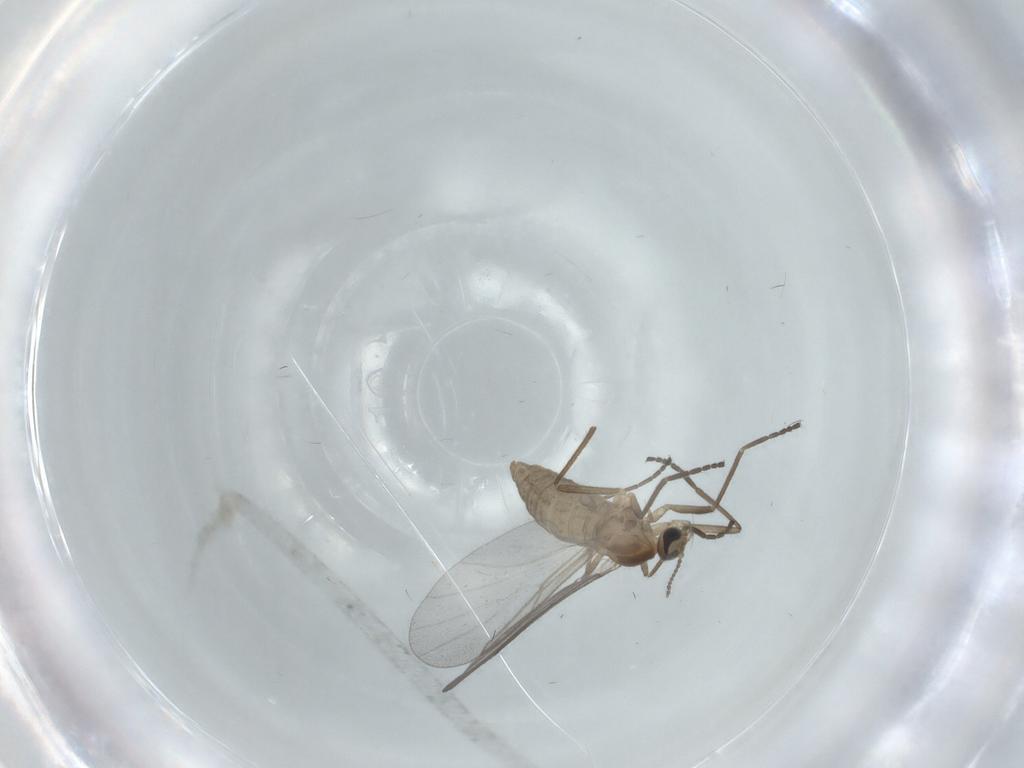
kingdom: Animalia
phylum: Arthropoda
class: Insecta
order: Diptera
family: Cecidomyiidae
